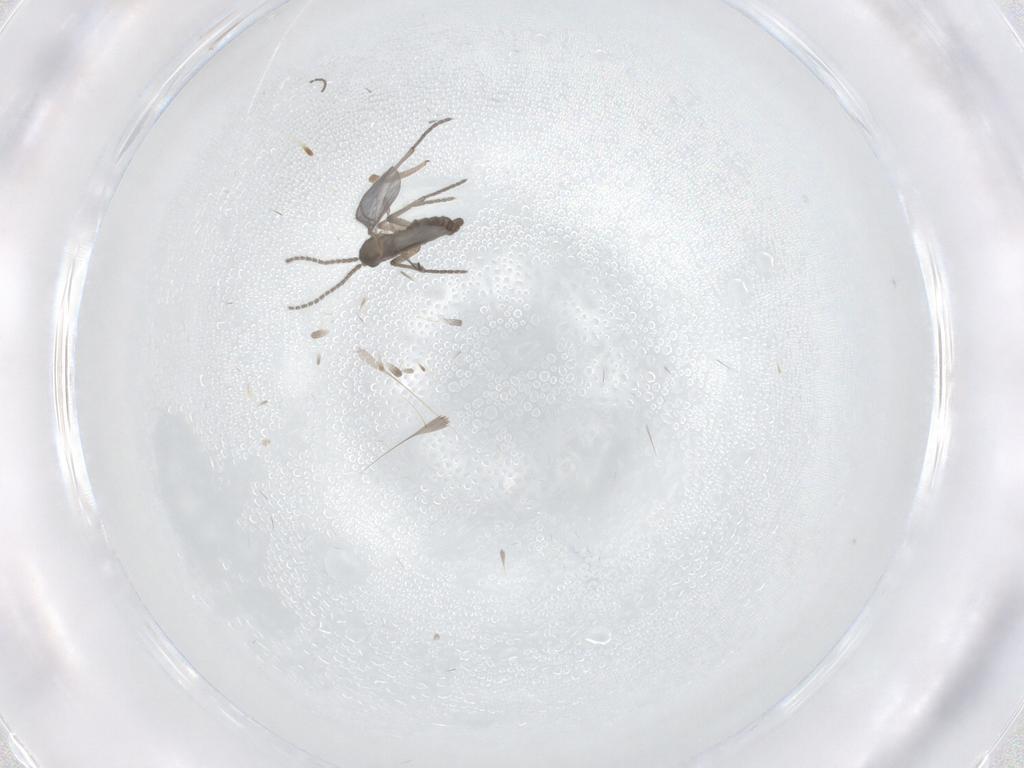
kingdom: Animalia
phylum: Arthropoda
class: Insecta
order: Diptera
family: Sciaridae
